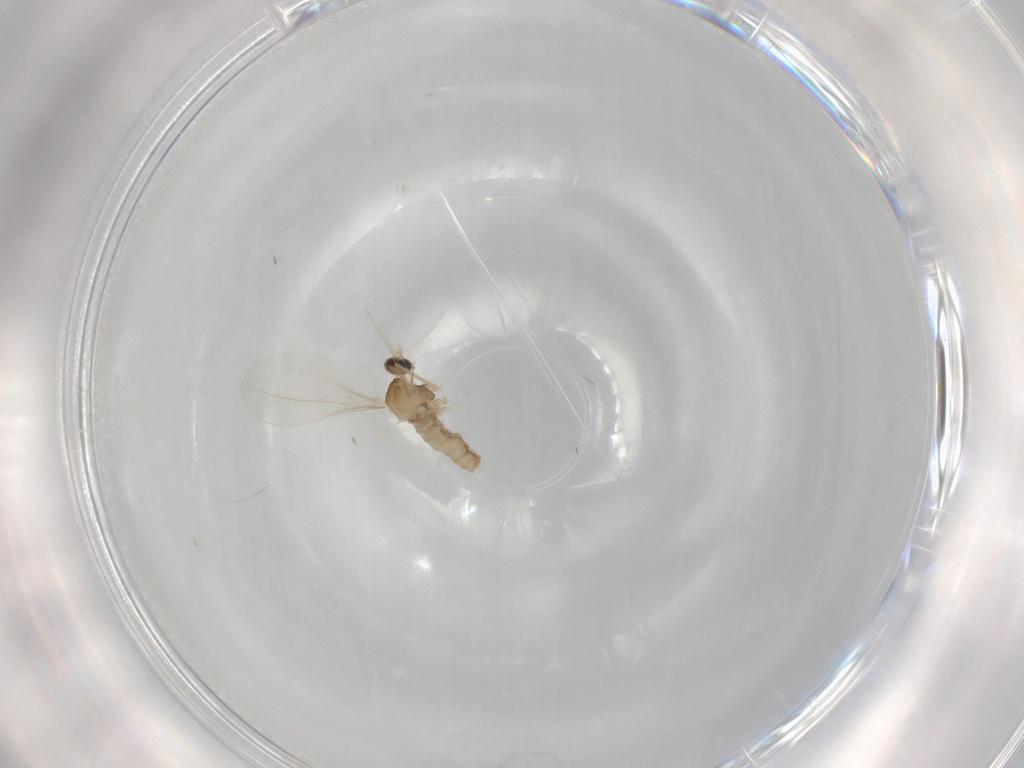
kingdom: Animalia
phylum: Arthropoda
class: Insecta
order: Diptera
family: Cecidomyiidae
